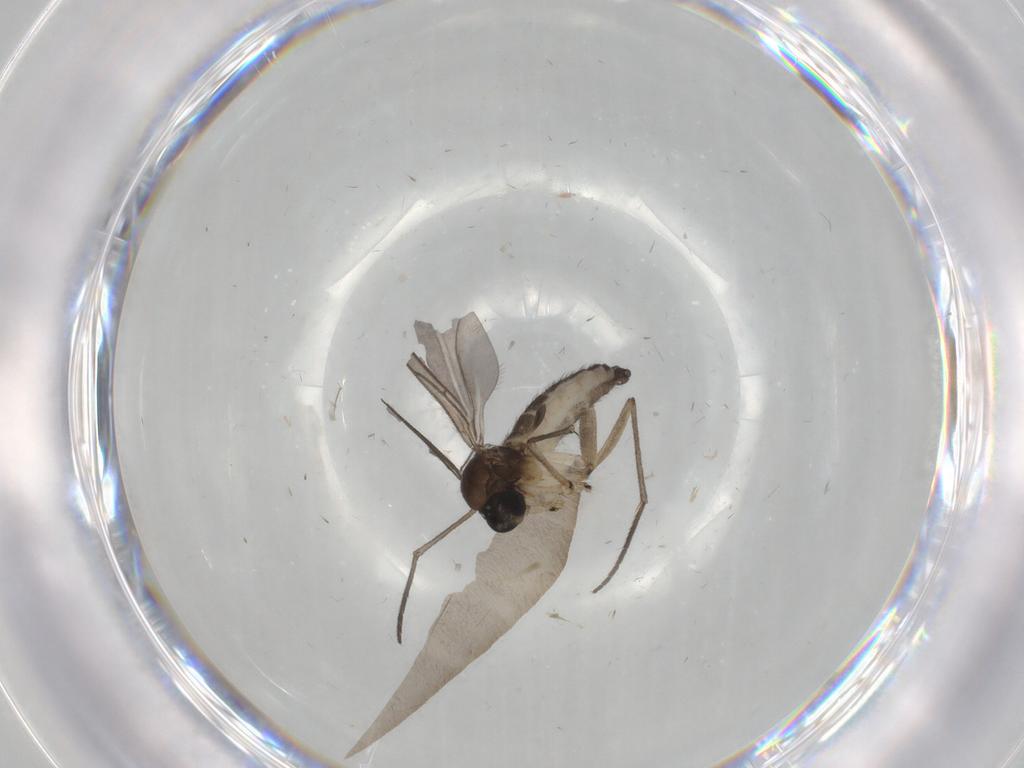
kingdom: Animalia
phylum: Arthropoda
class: Insecta
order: Diptera
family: Sciaridae
